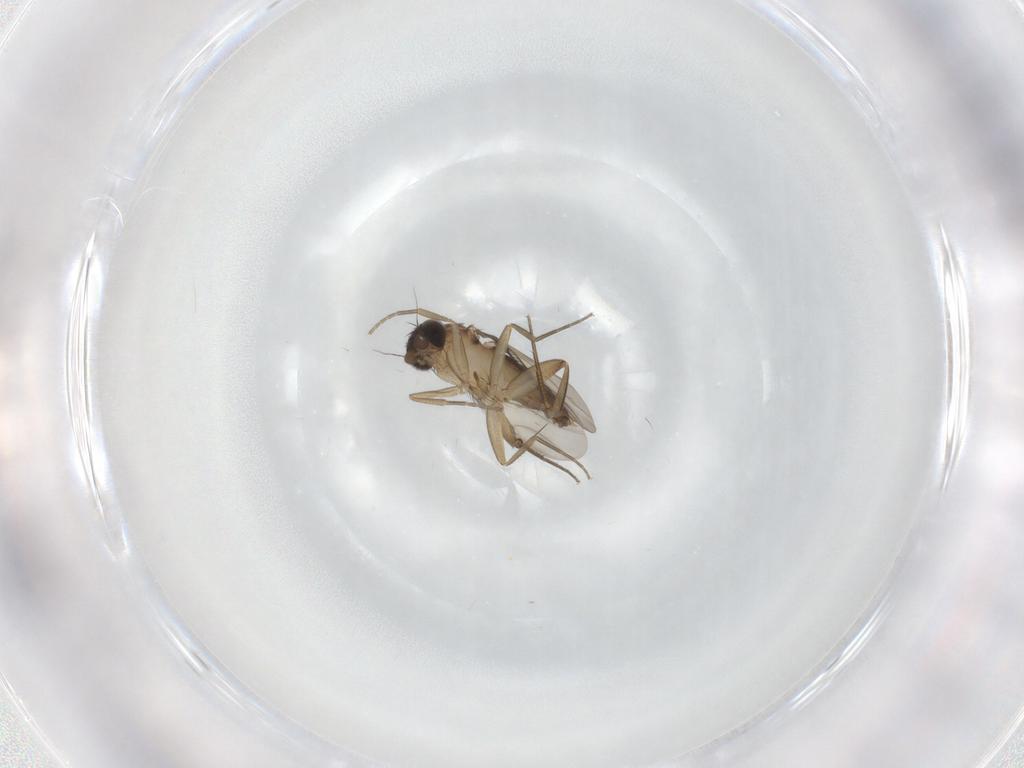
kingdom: Animalia
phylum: Arthropoda
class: Insecta
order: Diptera
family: Phoridae
